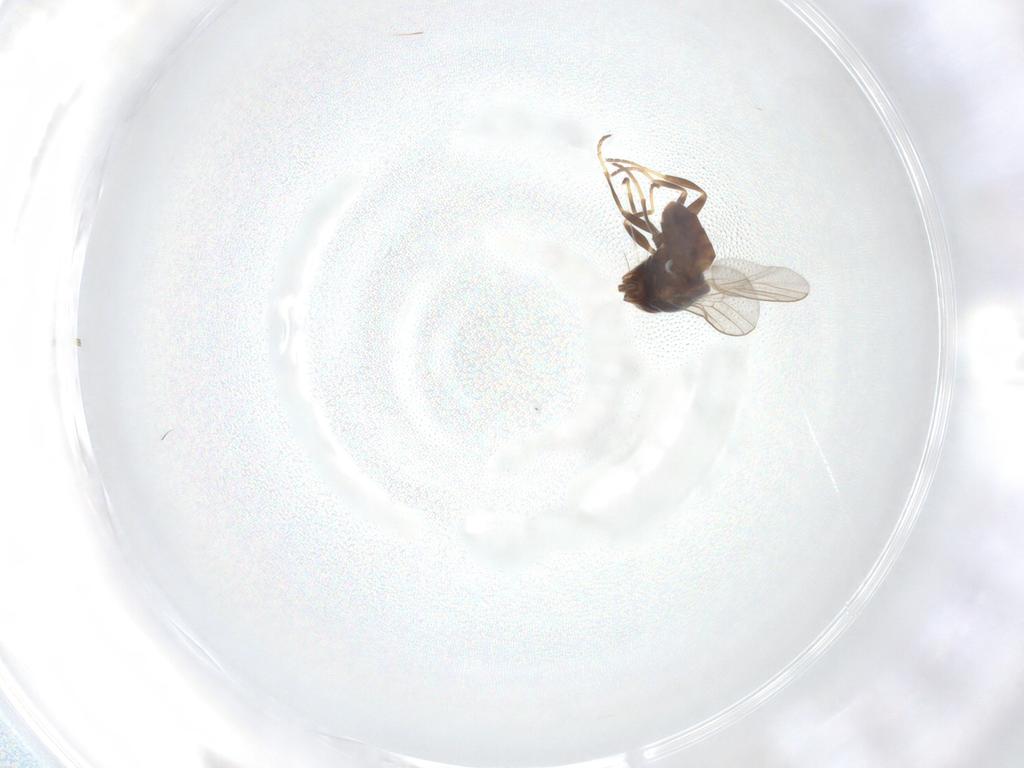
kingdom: Animalia
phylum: Arthropoda
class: Insecta
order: Diptera
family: Chloropidae
